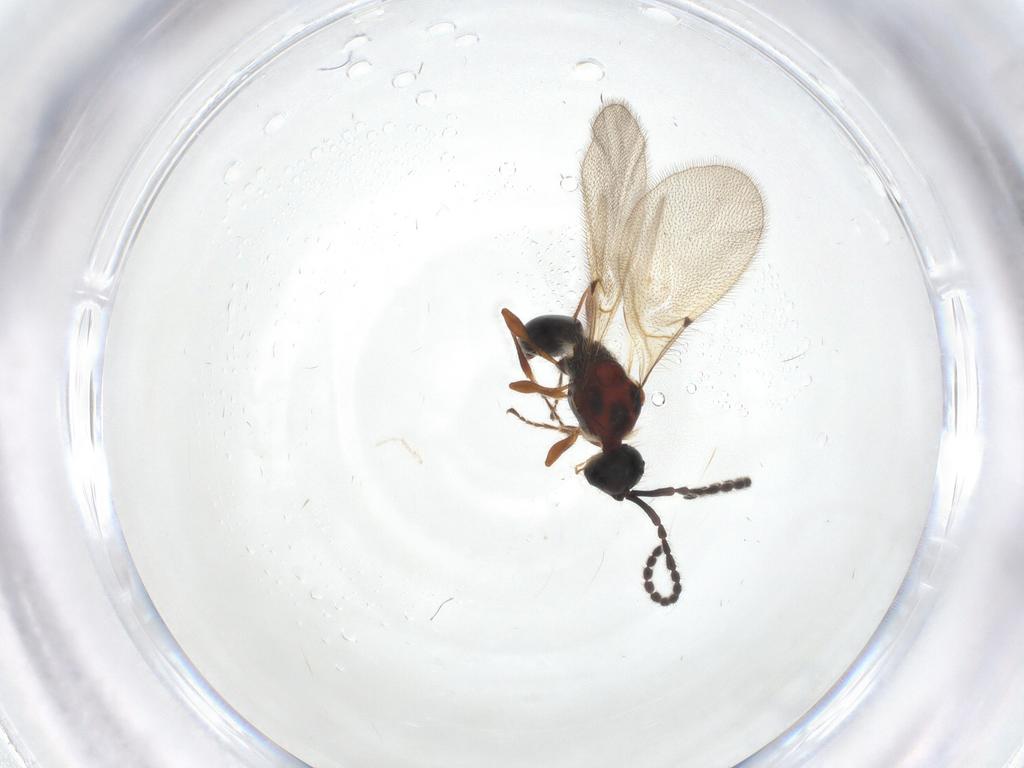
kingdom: Animalia
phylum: Arthropoda
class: Insecta
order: Hymenoptera
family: Diapriidae
